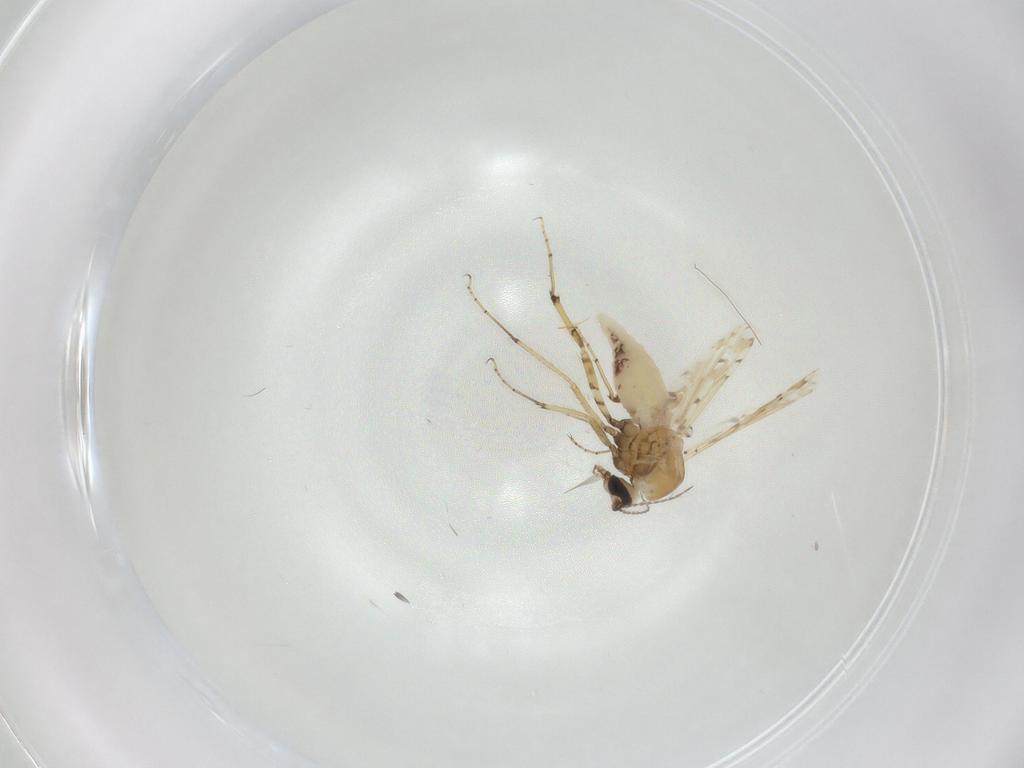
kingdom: Animalia
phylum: Arthropoda
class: Insecta
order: Diptera
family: Ceratopogonidae
